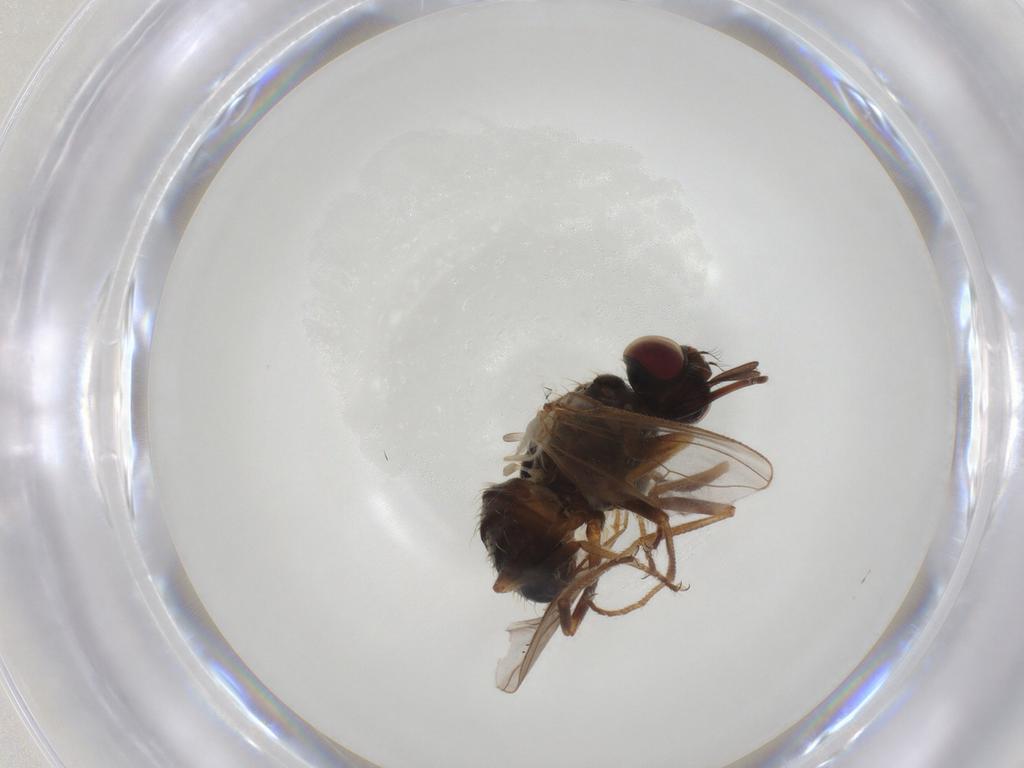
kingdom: Animalia
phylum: Arthropoda
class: Insecta
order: Diptera
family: Muscidae
